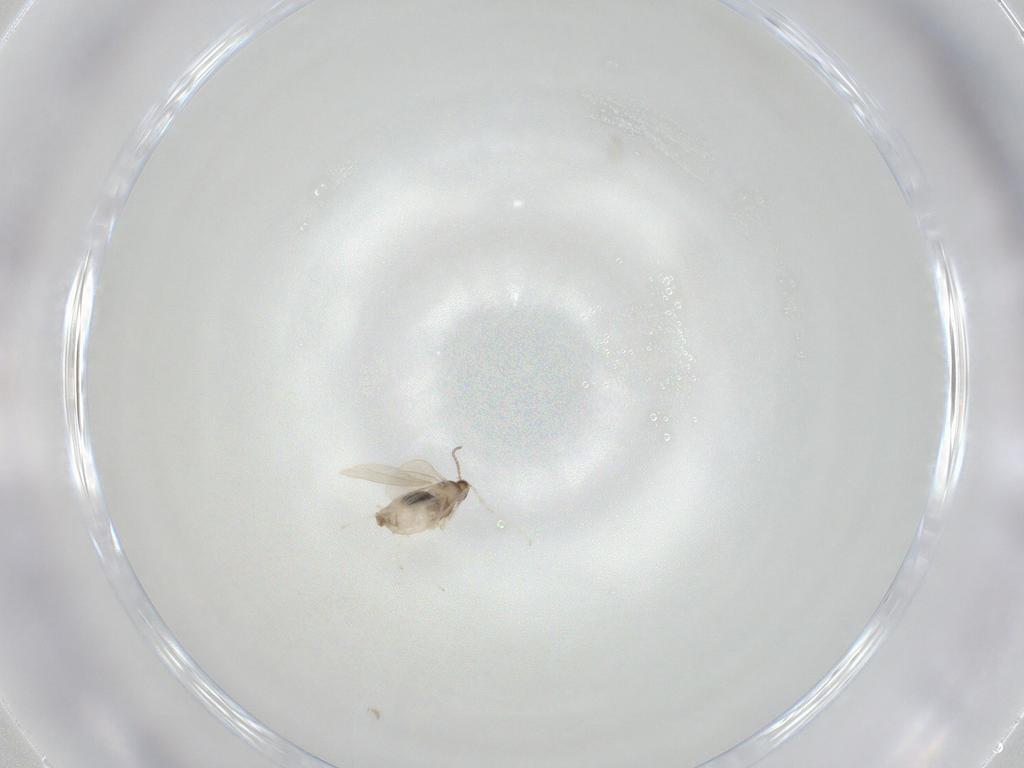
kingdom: Animalia
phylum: Arthropoda
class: Insecta
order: Diptera
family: Cecidomyiidae
